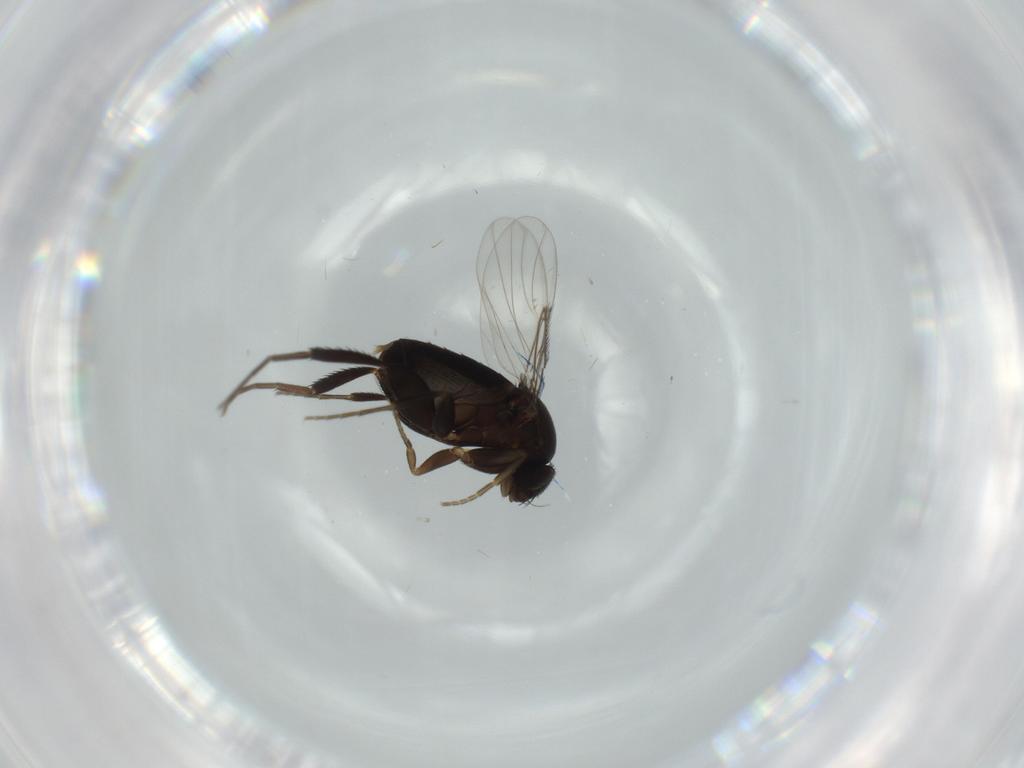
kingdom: Animalia
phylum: Arthropoda
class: Insecta
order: Diptera
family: Phoridae
